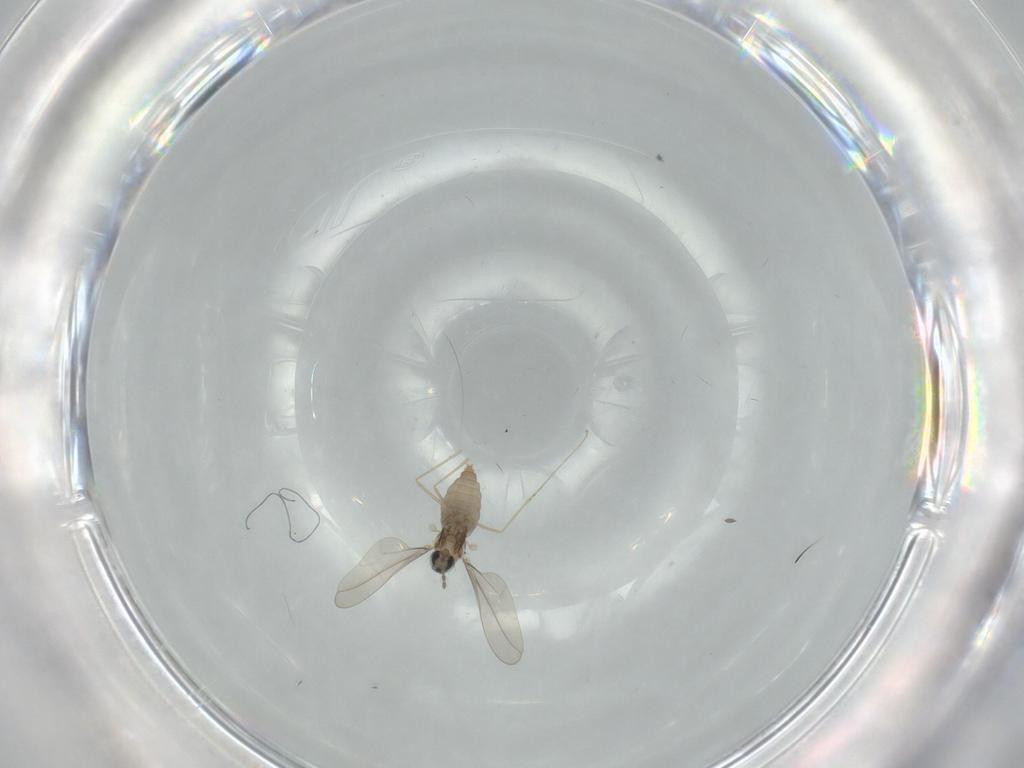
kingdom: Animalia
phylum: Arthropoda
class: Insecta
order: Diptera
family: Cecidomyiidae
